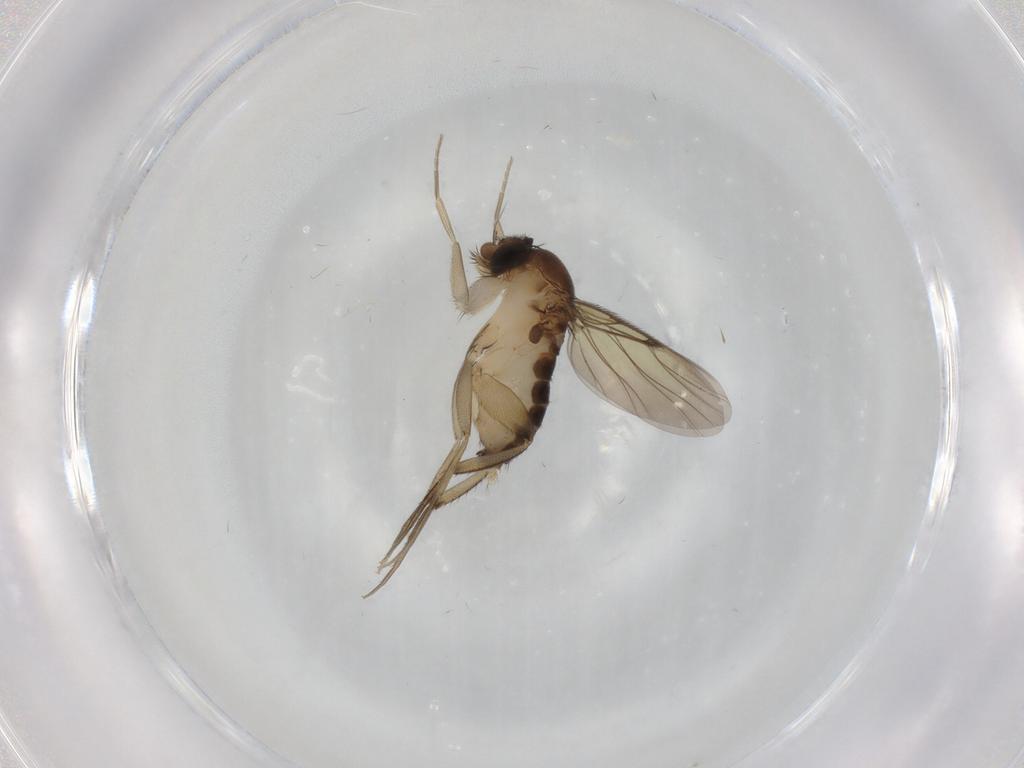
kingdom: Animalia
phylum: Arthropoda
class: Insecta
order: Diptera
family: Phoridae
